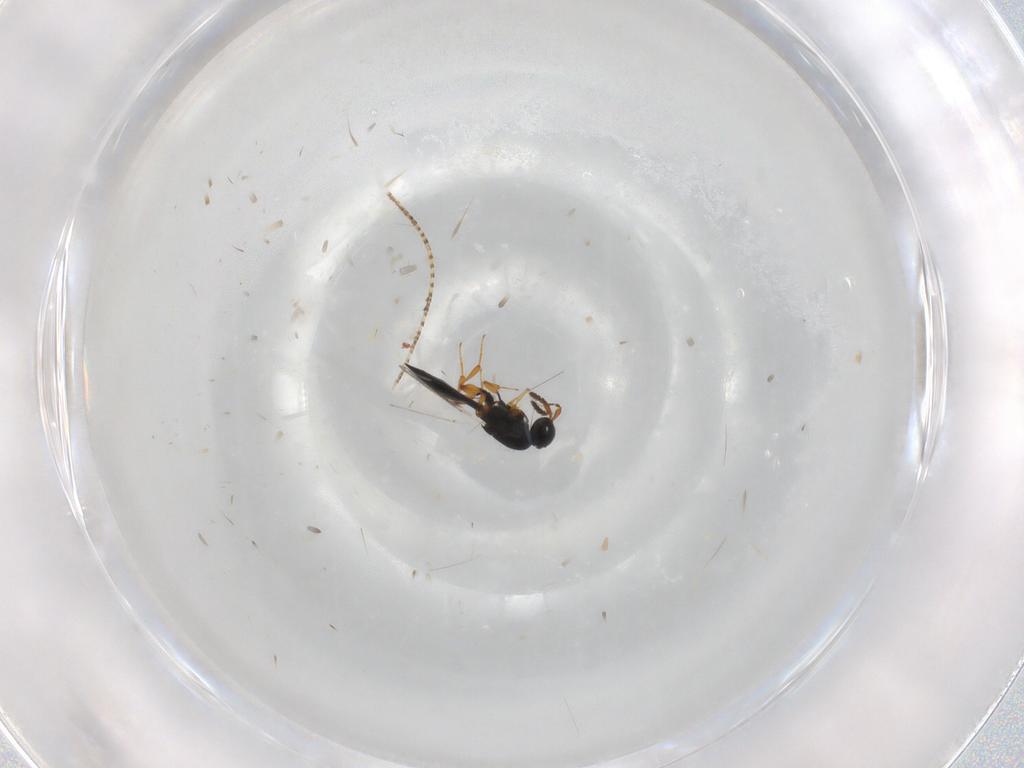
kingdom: Animalia
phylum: Arthropoda
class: Insecta
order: Hymenoptera
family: Platygastridae
